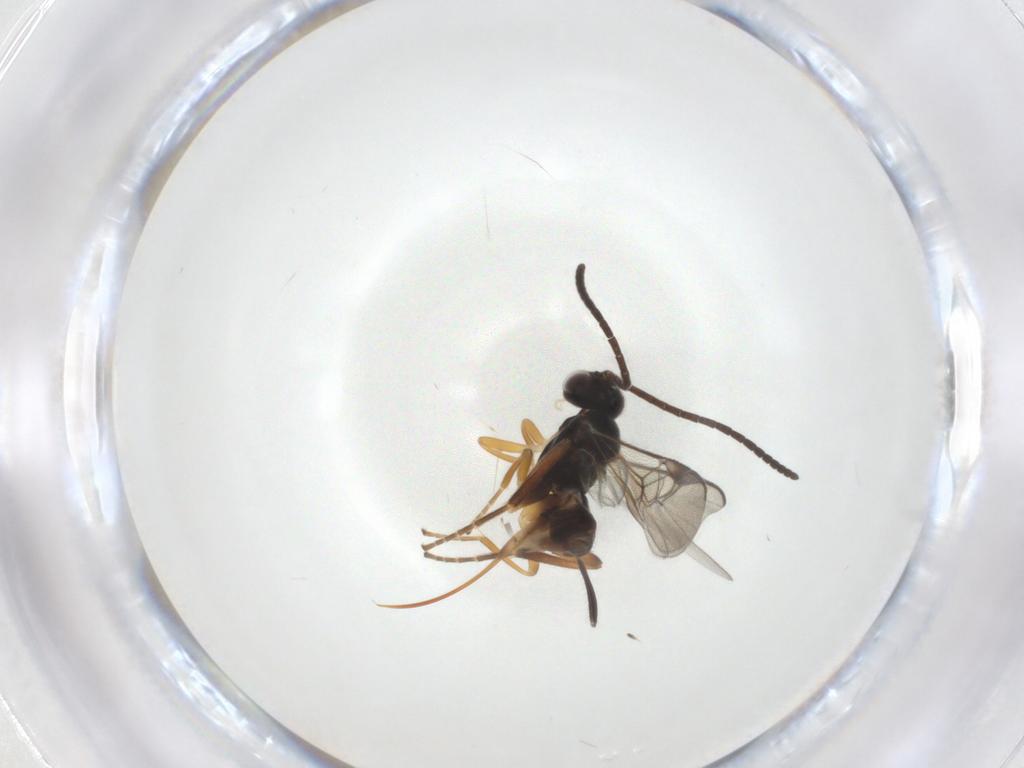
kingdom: Animalia
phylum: Arthropoda
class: Insecta
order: Hymenoptera
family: Braconidae
